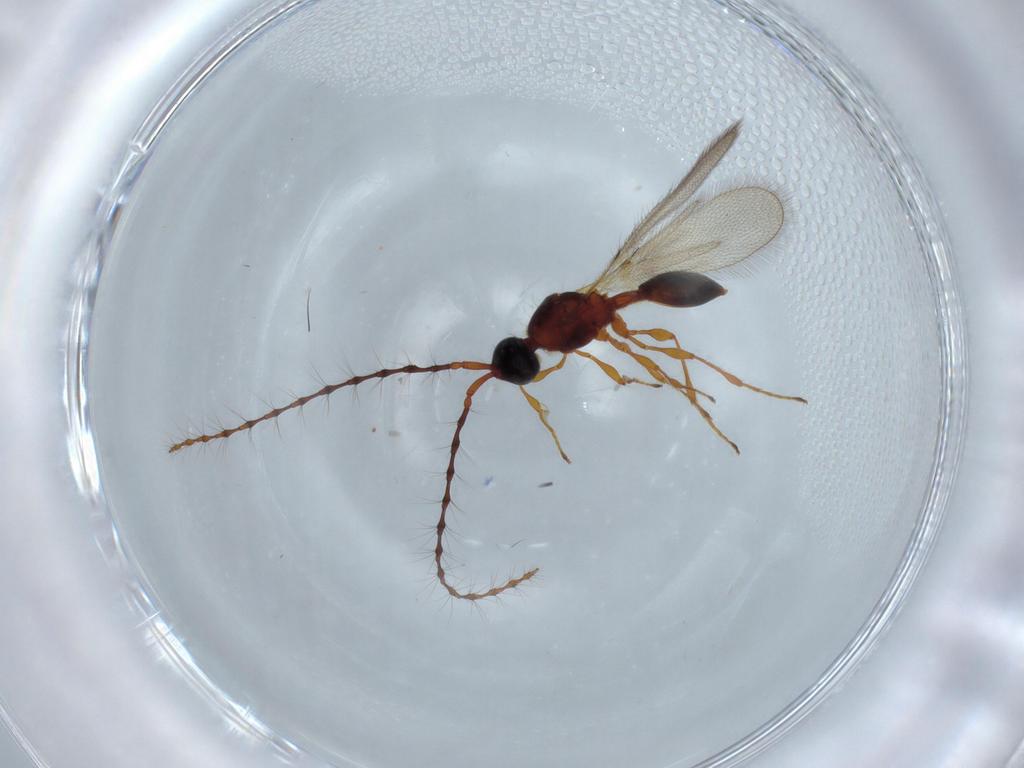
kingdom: Animalia
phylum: Arthropoda
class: Insecta
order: Hymenoptera
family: Diapriidae
